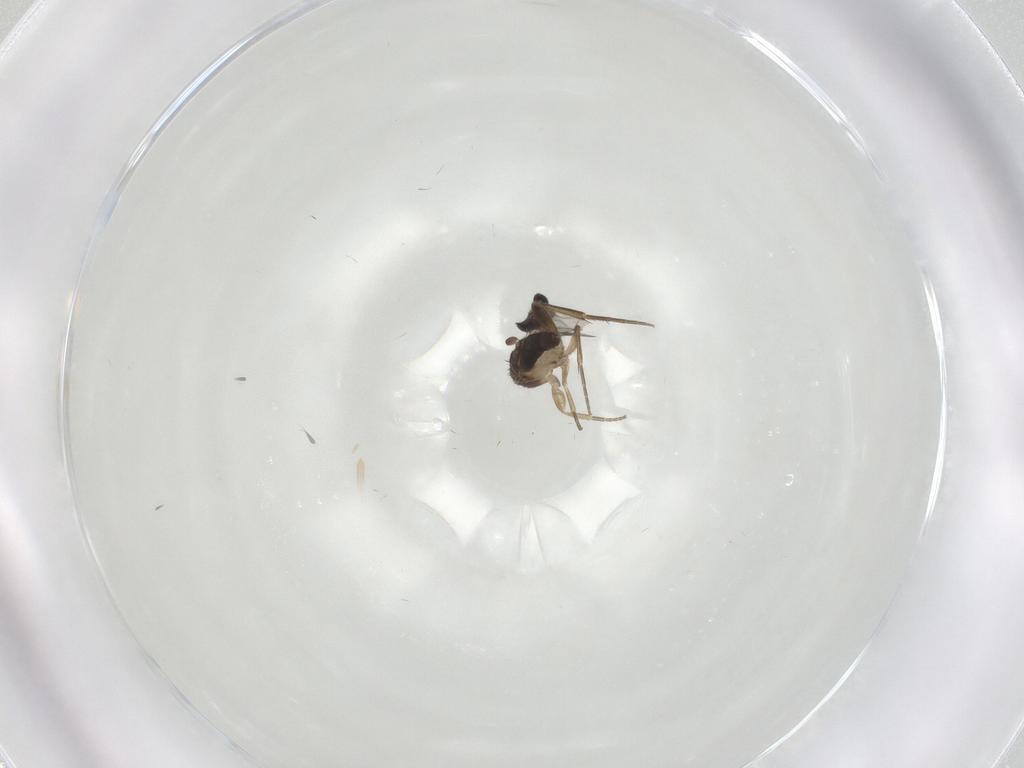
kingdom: Animalia
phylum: Arthropoda
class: Insecta
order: Diptera
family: Phoridae
